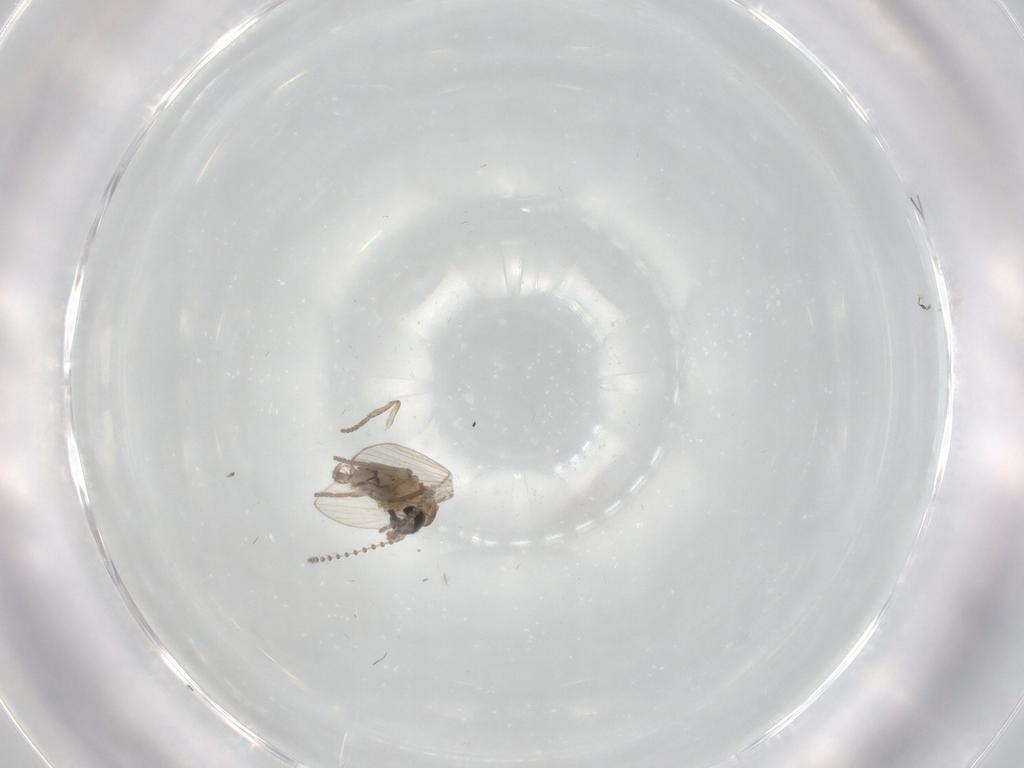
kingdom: Animalia
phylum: Arthropoda
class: Insecta
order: Diptera
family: Psychodidae
